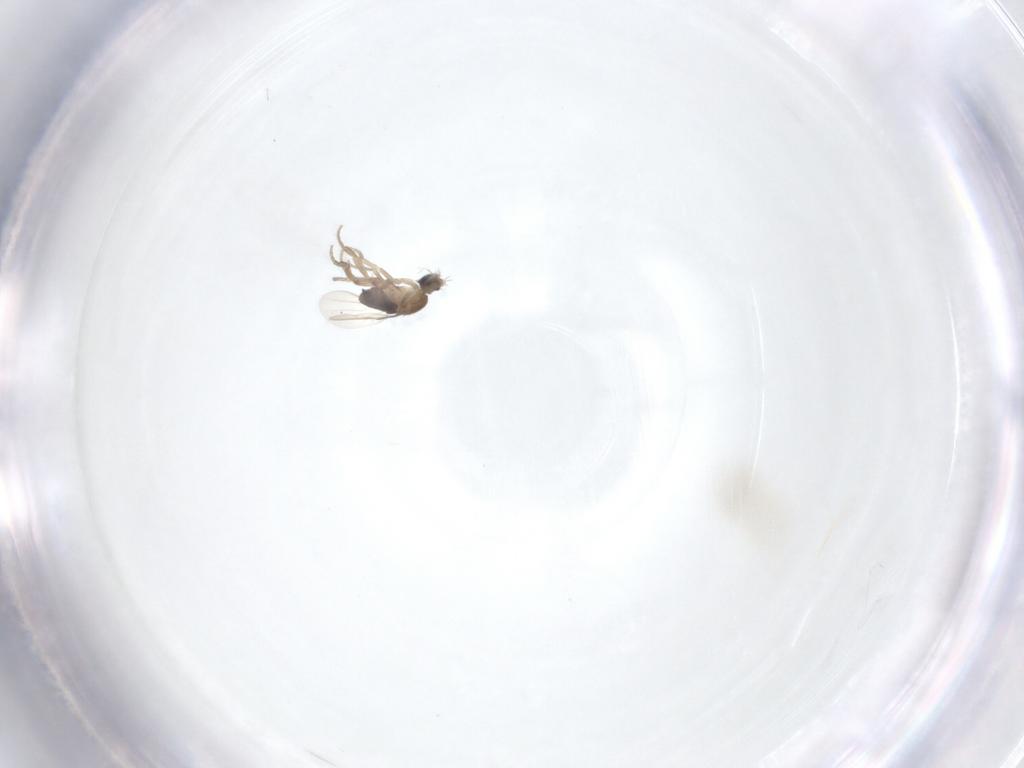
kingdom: Animalia
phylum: Arthropoda
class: Insecta
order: Diptera
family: Phoridae
